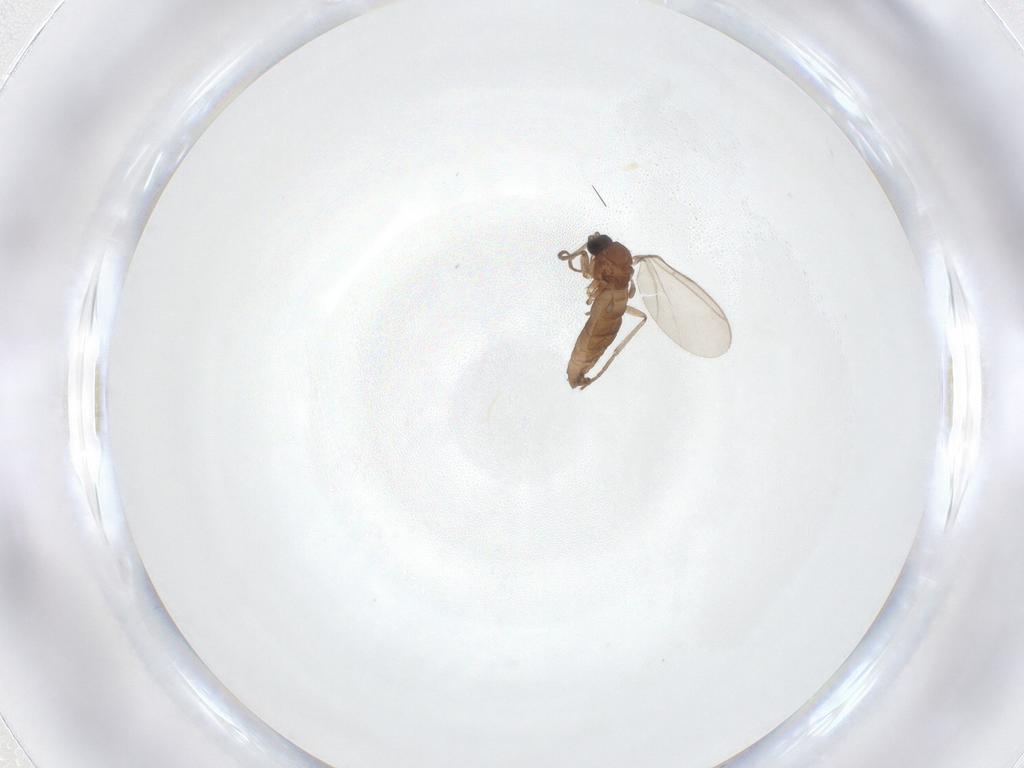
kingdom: Animalia
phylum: Arthropoda
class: Insecta
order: Diptera
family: Sciaridae
